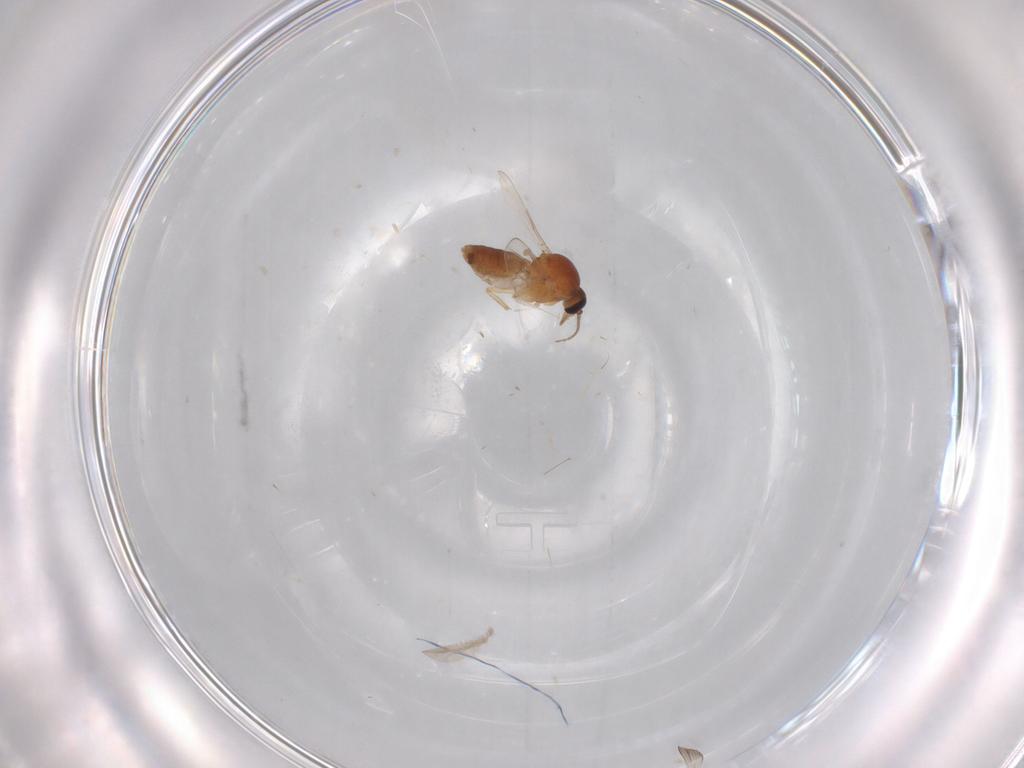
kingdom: Animalia
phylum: Arthropoda
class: Insecta
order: Diptera
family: Ceratopogonidae
